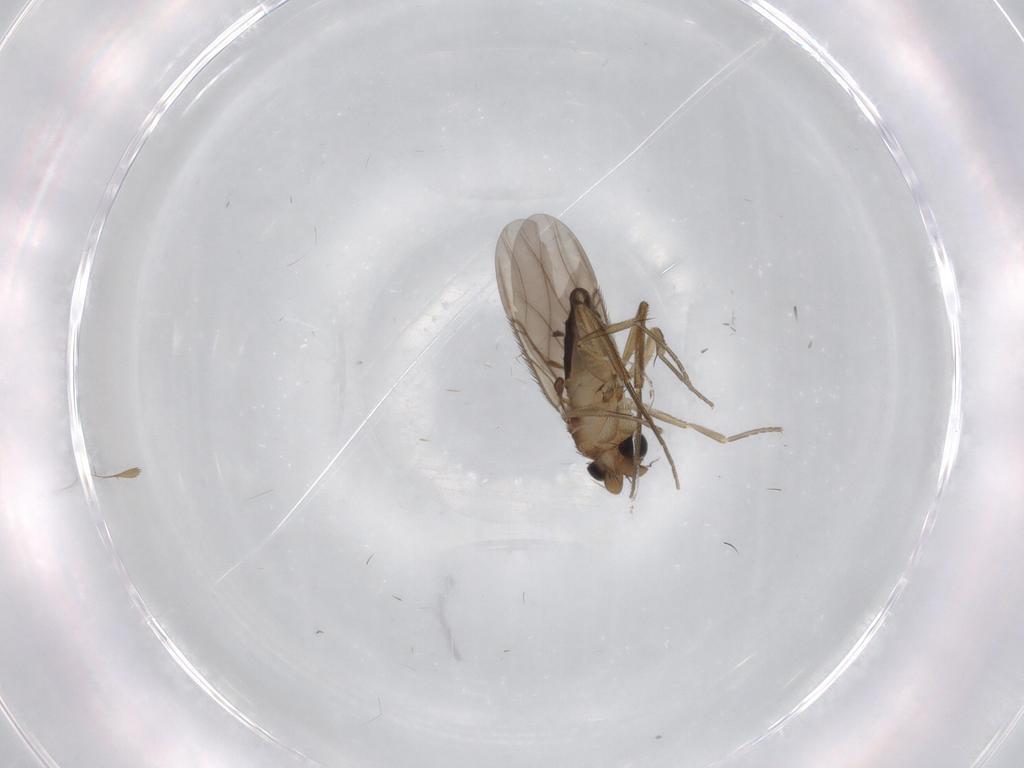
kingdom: Animalia
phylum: Arthropoda
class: Insecta
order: Diptera
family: Phoridae
